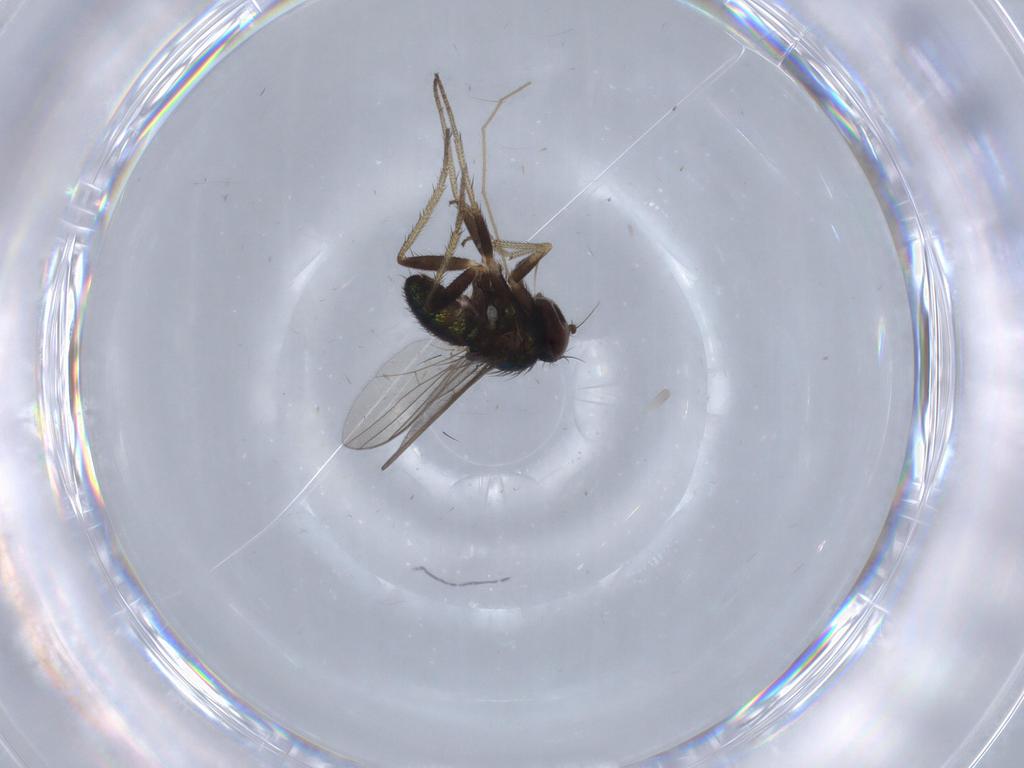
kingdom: Animalia
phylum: Arthropoda
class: Insecta
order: Diptera
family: Dolichopodidae
